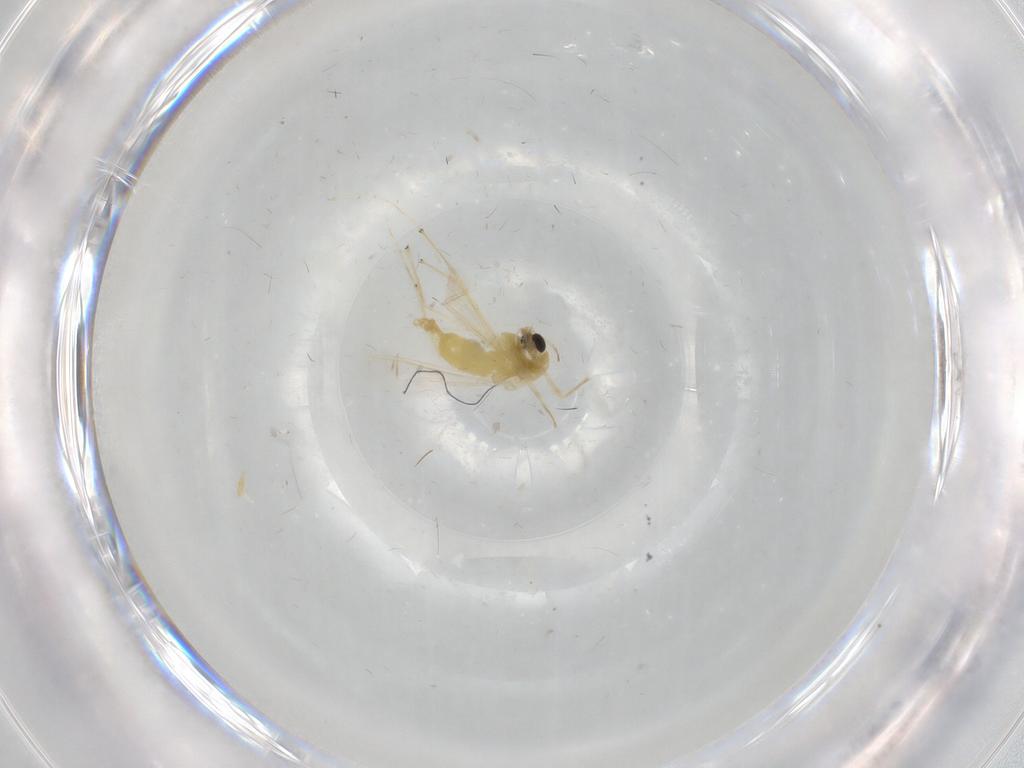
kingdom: Animalia
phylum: Arthropoda
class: Insecta
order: Diptera
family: Chironomidae
